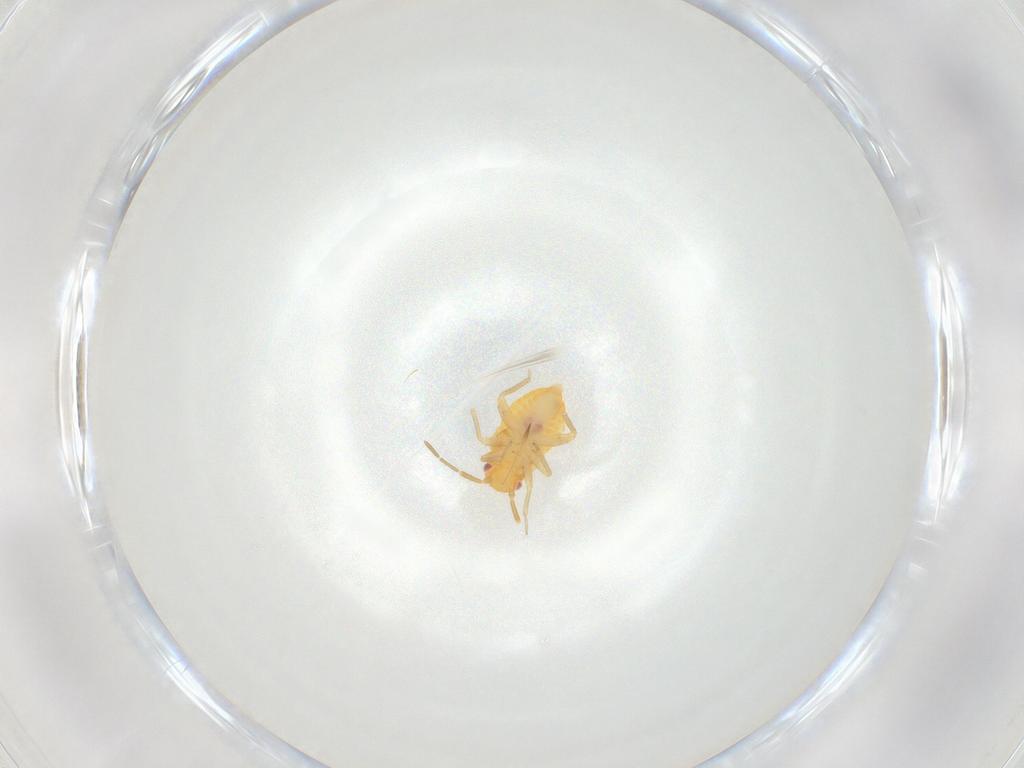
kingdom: Animalia
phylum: Arthropoda
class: Insecta
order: Hemiptera
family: Miridae
